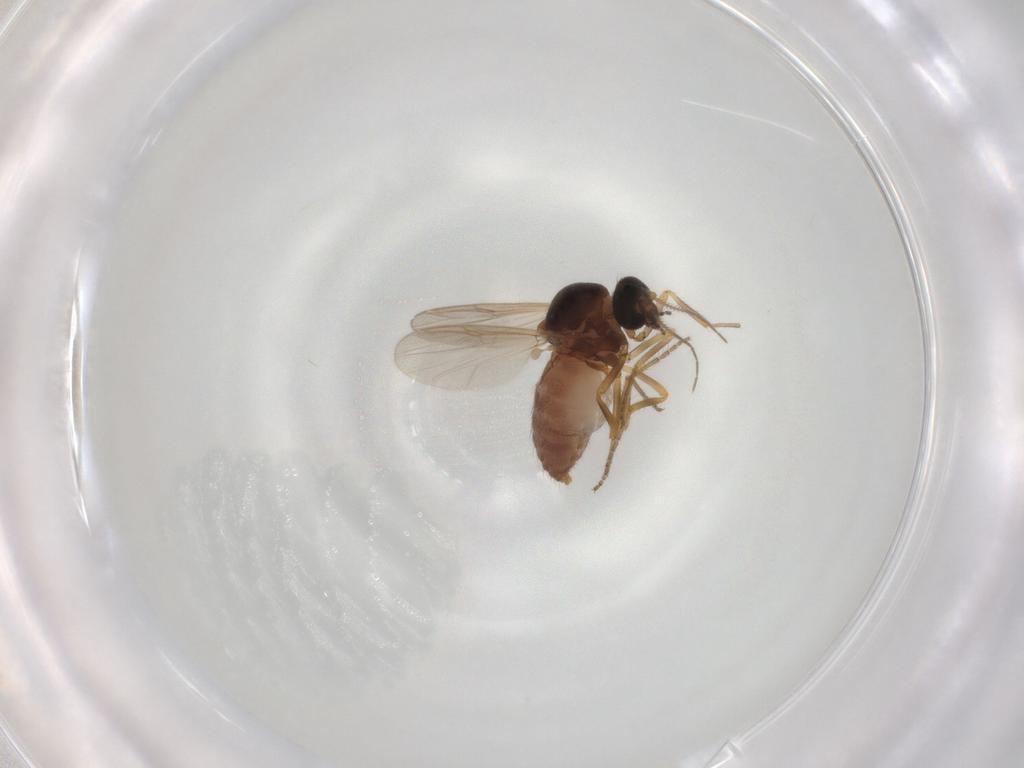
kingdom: Animalia
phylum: Arthropoda
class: Insecta
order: Diptera
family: Ceratopogonidae
